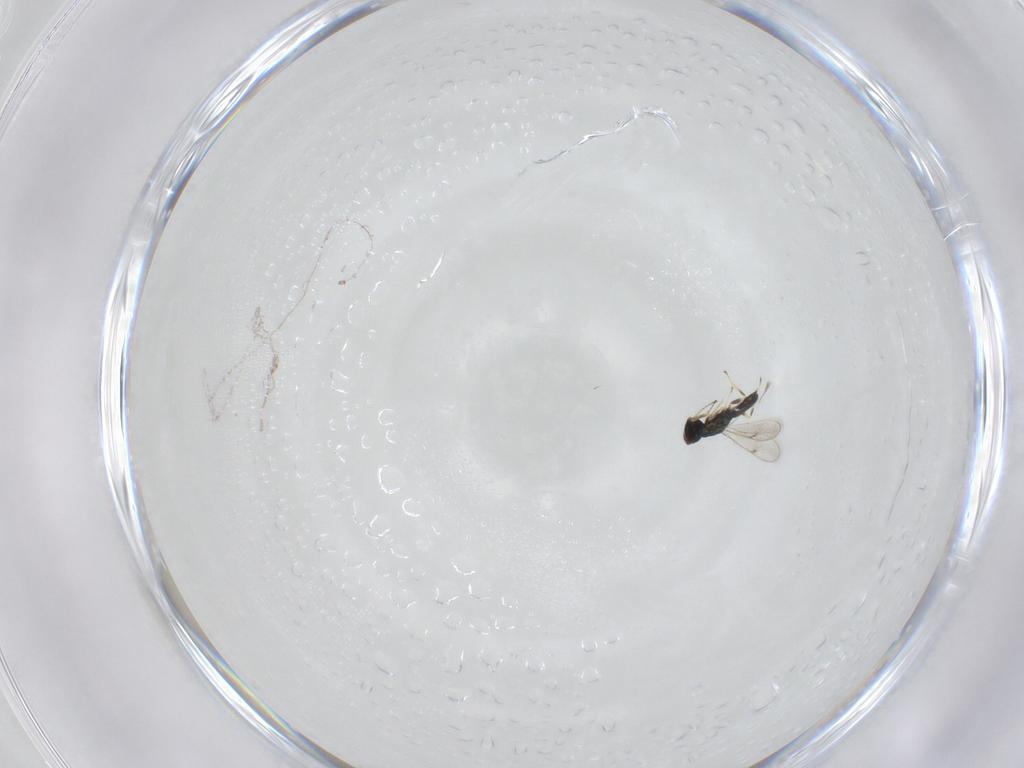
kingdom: Animalia
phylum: Arthropoda
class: Insecta
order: Hymenoptera
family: Eulophidae
